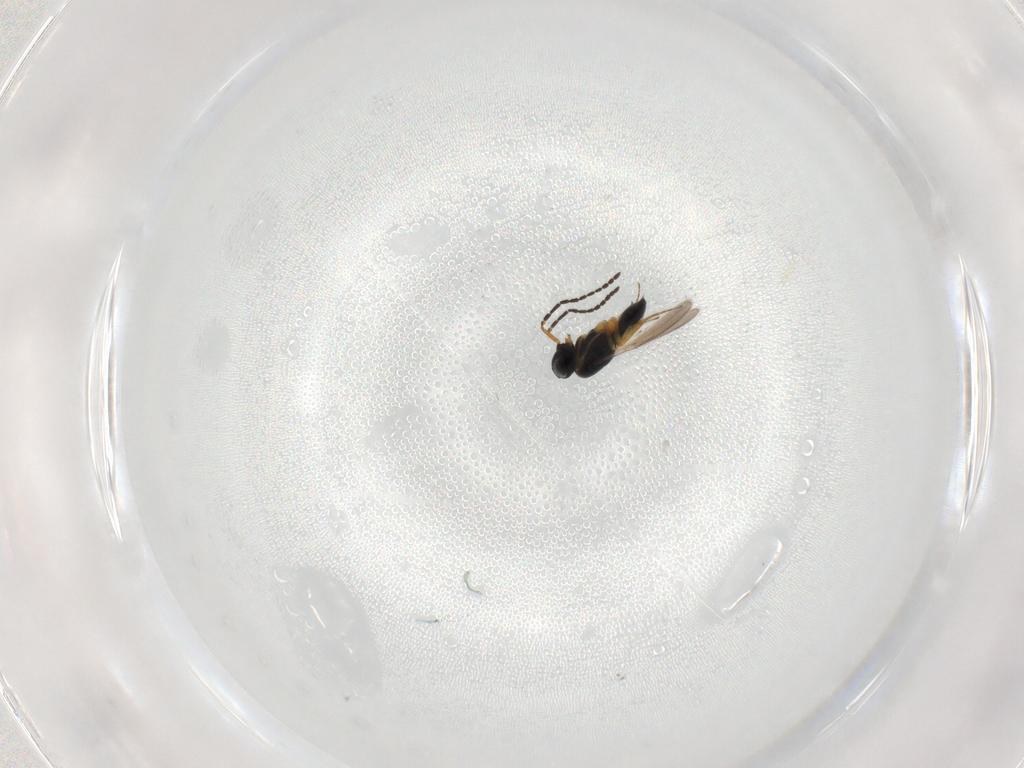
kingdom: Animalia
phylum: Arthropoda
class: Insecta
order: Hymenoptera
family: Scelionidae
